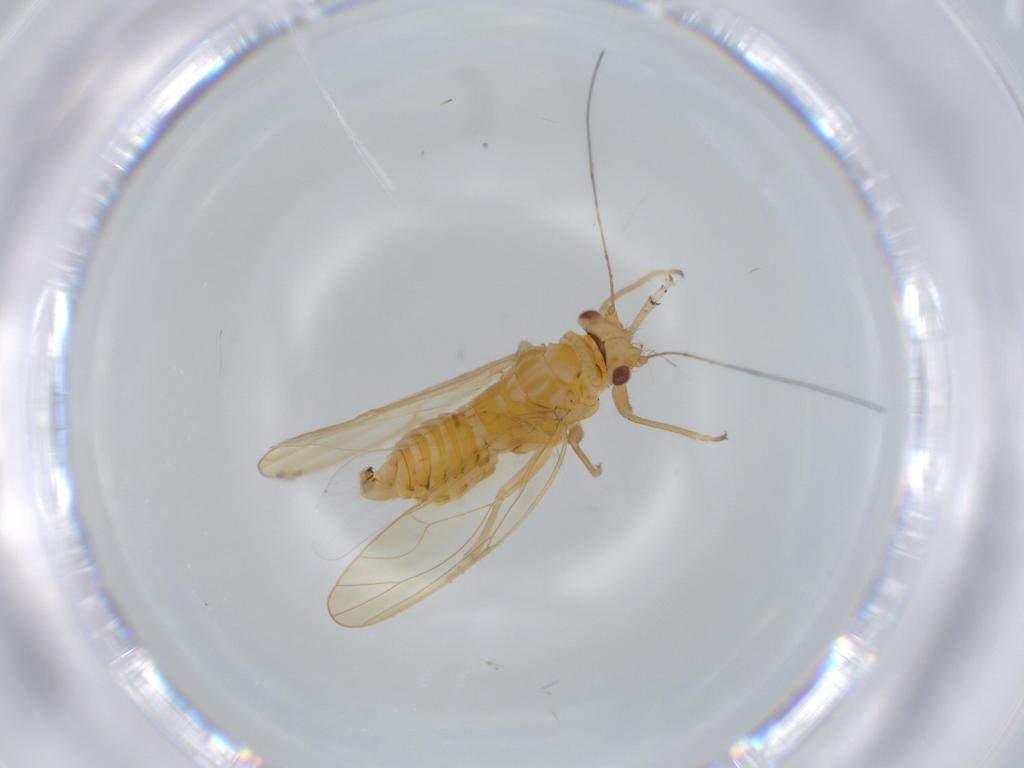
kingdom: Animalia
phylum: Arthropoda
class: Insecta
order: Hemiptera
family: Psyllidae
